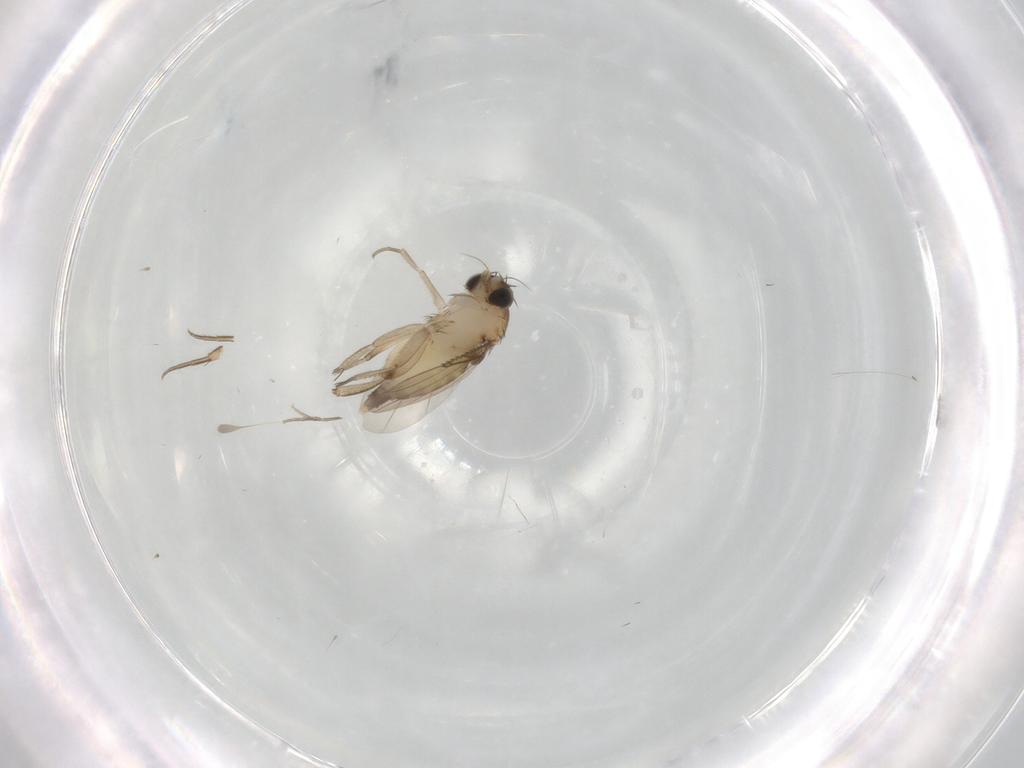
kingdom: Animalia
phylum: Arthropoda
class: Insecta
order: Diptera
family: Phoridae
